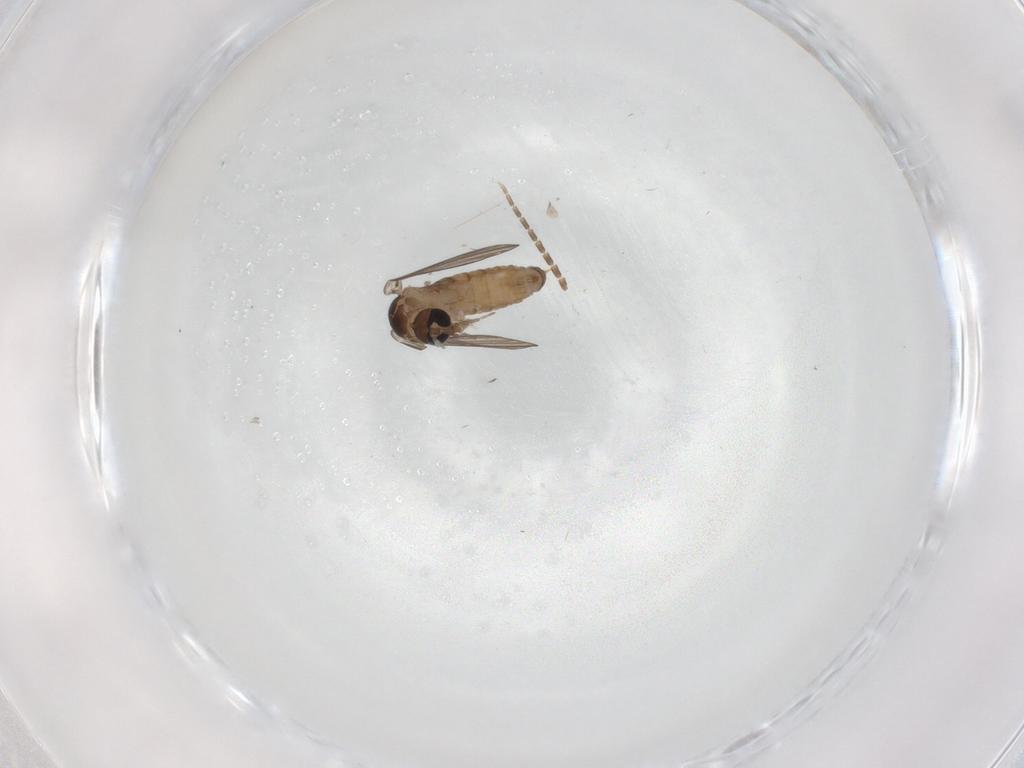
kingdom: Animalia
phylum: Arthropoda
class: Insecta
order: Diptera
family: Psychodidae
